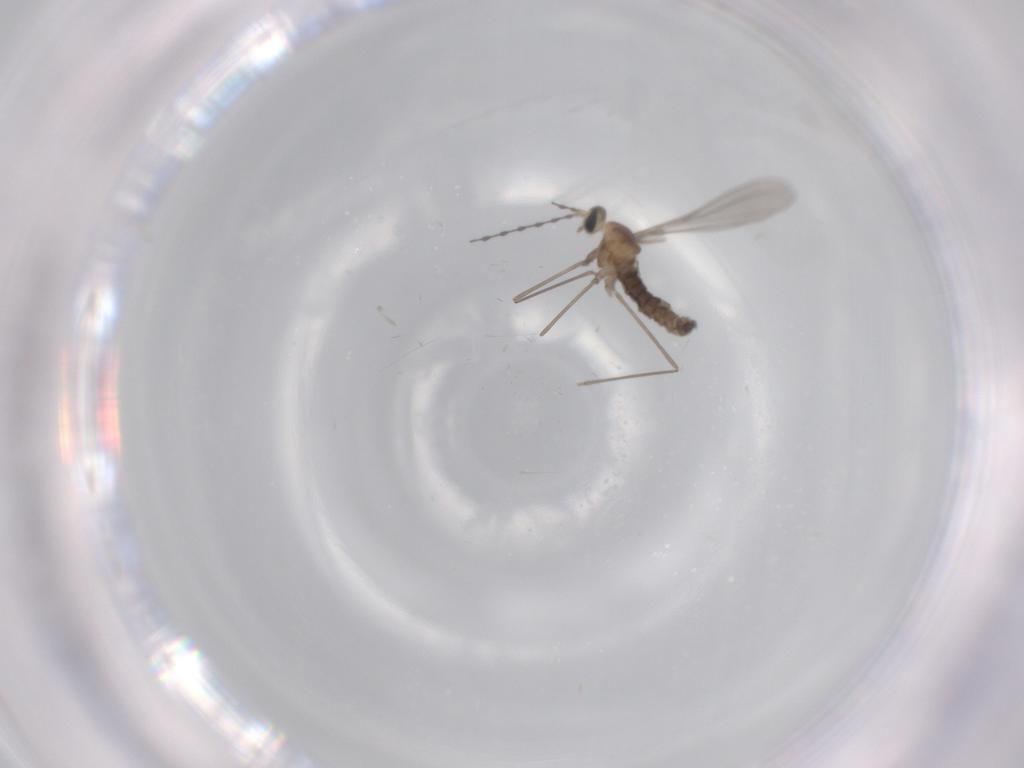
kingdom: Animalia
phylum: Arthropoda
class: Insecta
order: Diptera
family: Cecidomyiidae
